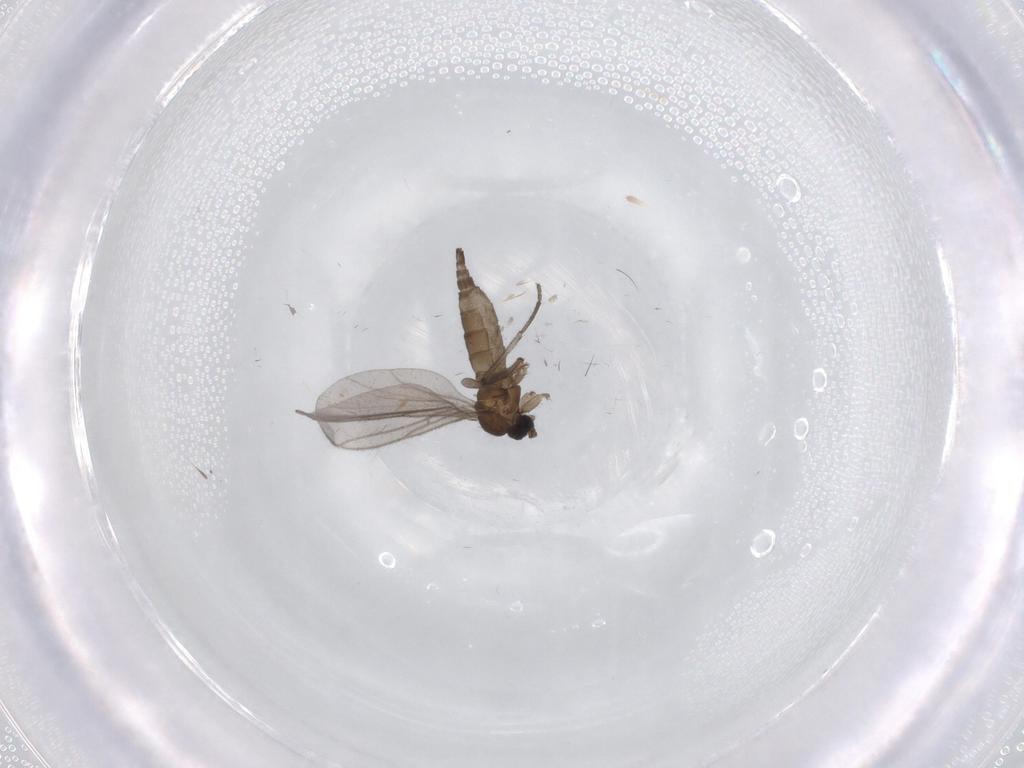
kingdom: Animalia
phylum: Arthropoda
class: Insecta
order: Diptera
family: Sciaridae
